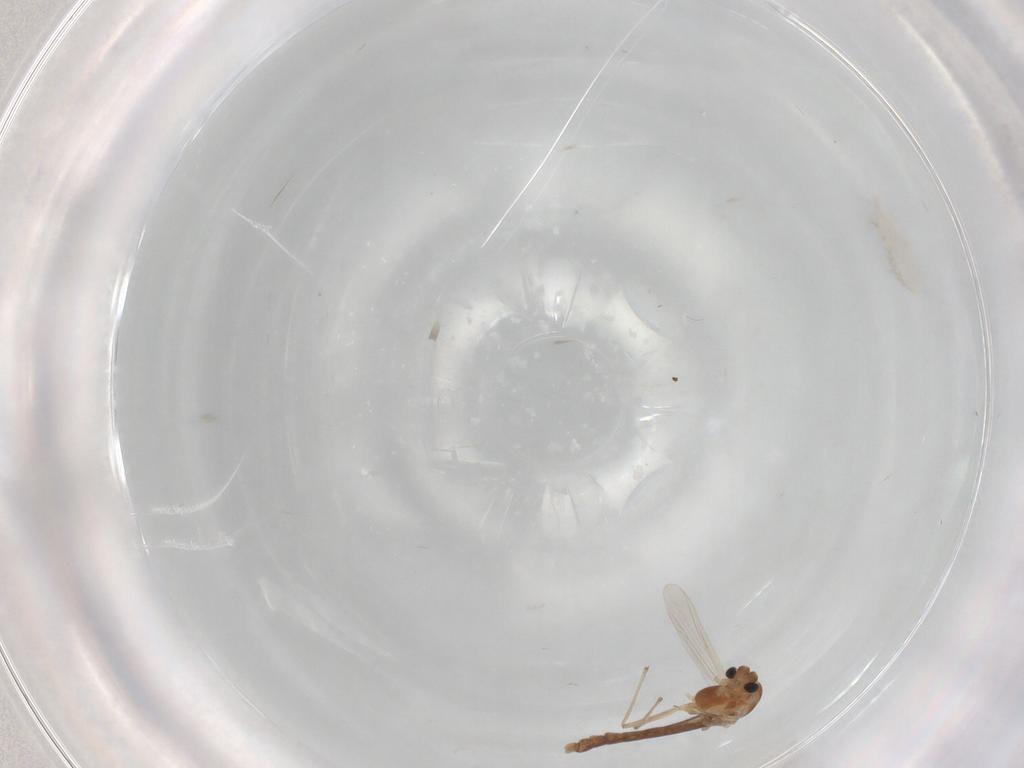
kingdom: Animalia
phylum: Arthropoda
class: Insecta
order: Diptera
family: Psychodidae
